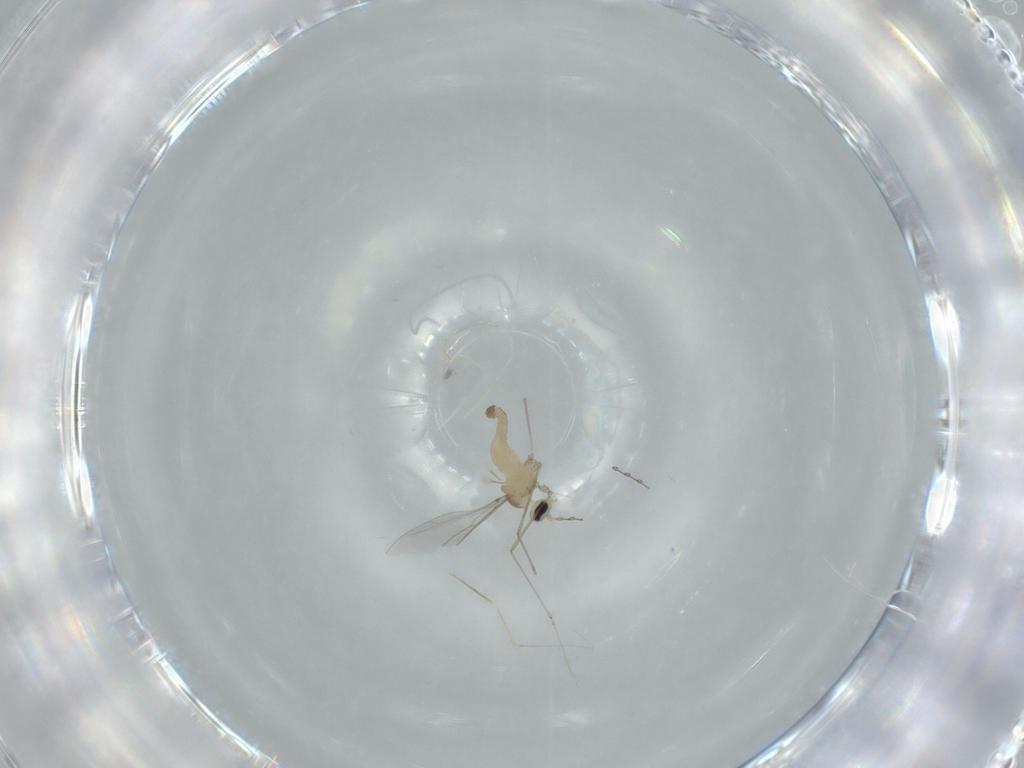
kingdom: Animalia
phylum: Arthropoda
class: Insecta
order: Diptera
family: Cecidomyiidae
